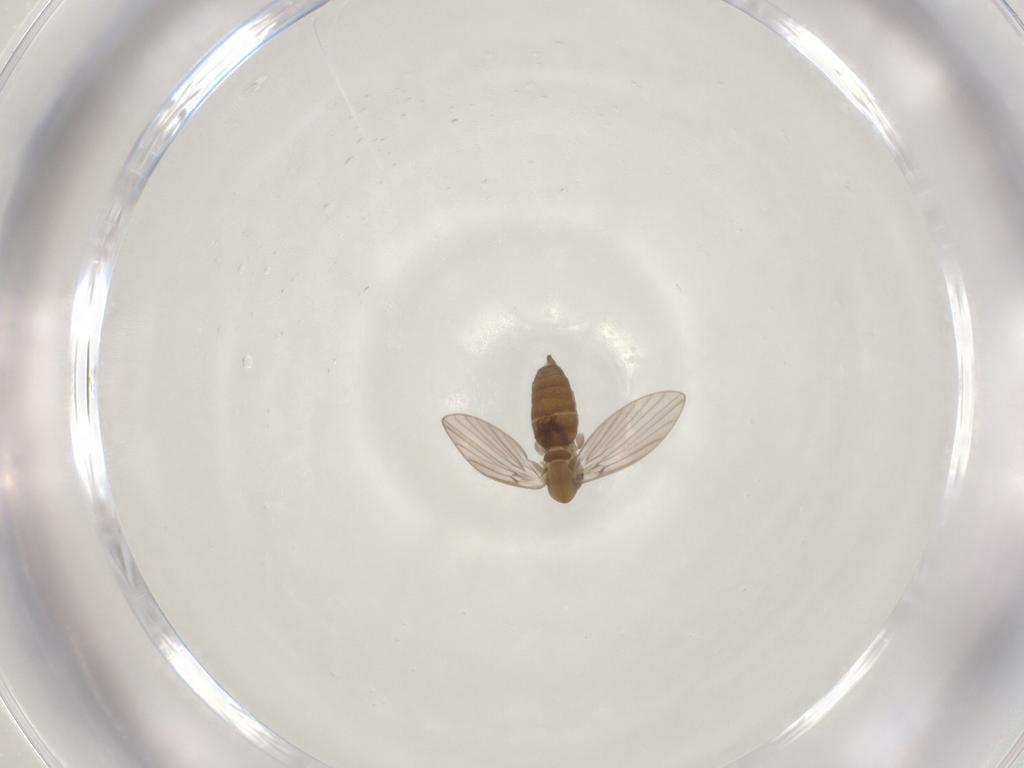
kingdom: Animalia
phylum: Arthropoda
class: Insecta
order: Diptera
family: Psychodidae
